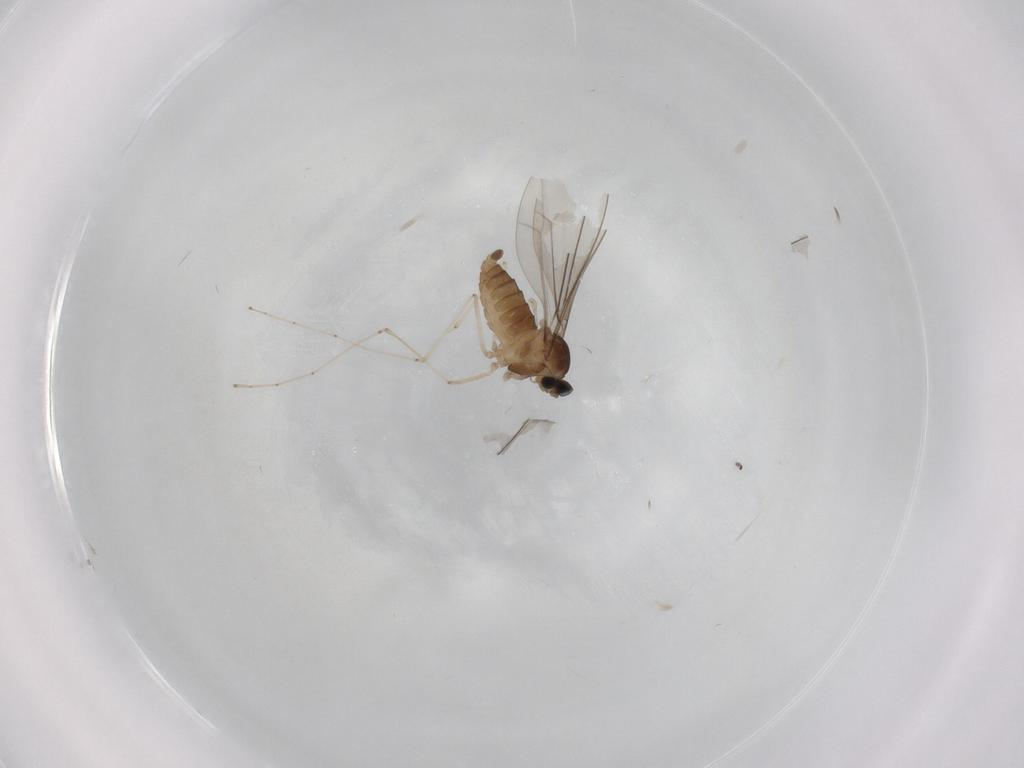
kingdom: Animalia
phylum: Arthropoda
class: Insecta
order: Diptera
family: Cecidomyiidae
